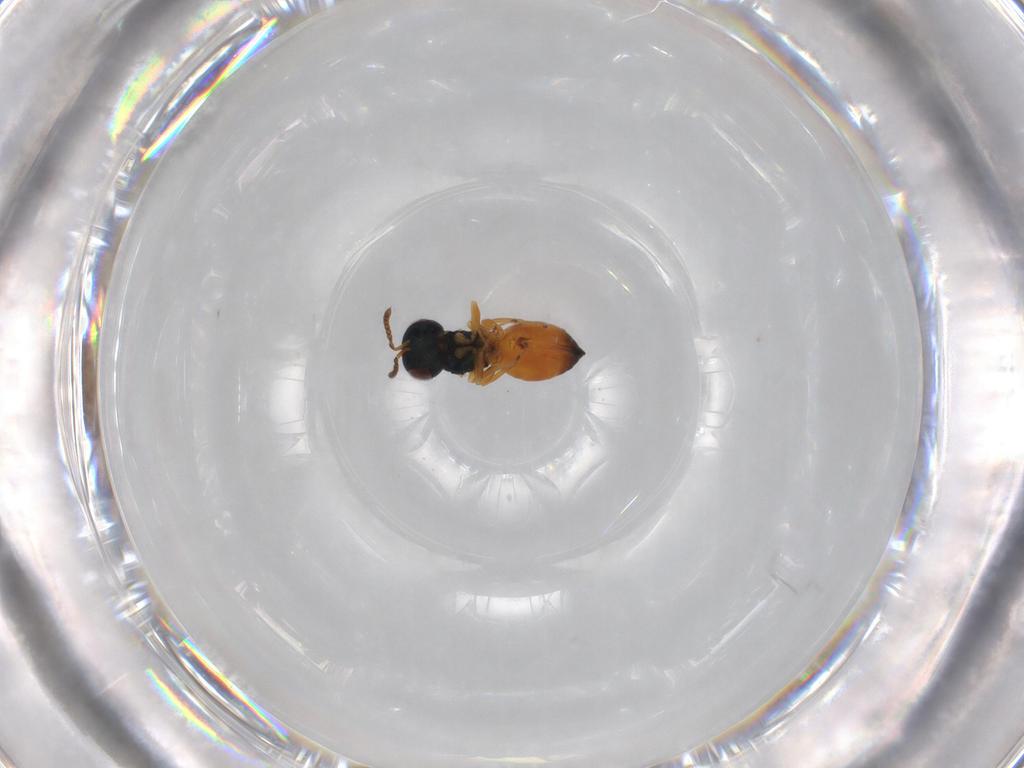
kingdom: Animalia
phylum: Arthropoda
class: Insecta
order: Hymenoptera
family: Pteromalidae
